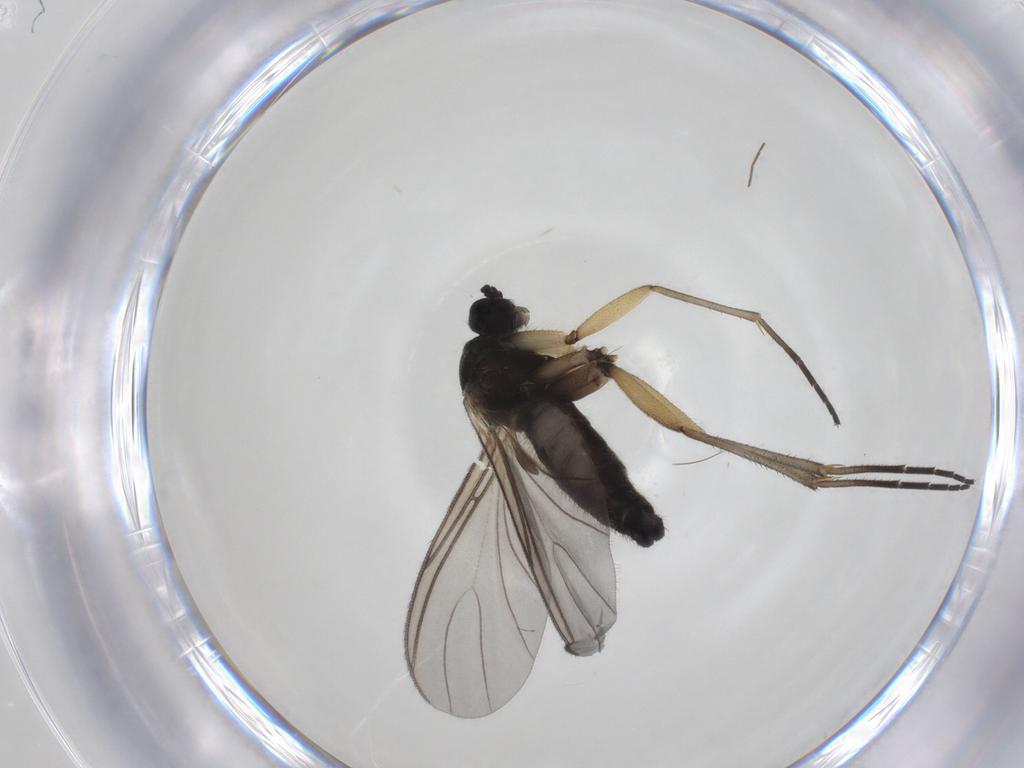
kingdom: Animalia
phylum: Arthropoda
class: Insecta
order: Diptera
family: Sciaridae
